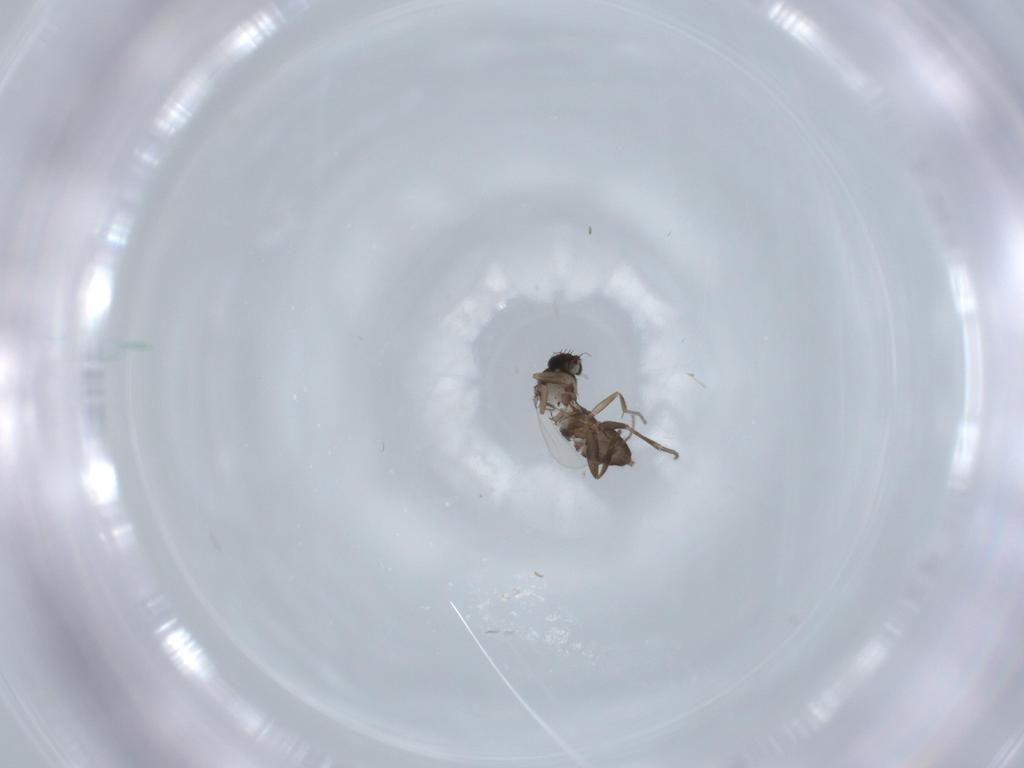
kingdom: Animalia
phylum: Arthropoda
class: Insecta
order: Diptera
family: Phoridae
